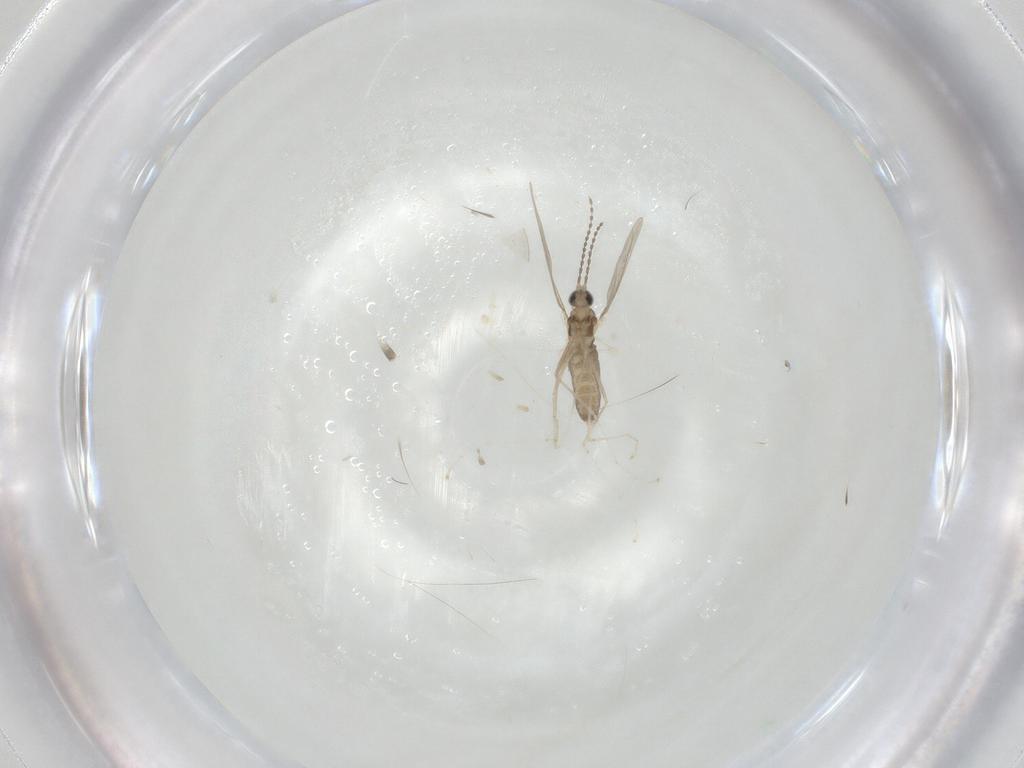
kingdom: Animalia
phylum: Arthropoda
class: Insecta
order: Diptera
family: Cecidomyiidae
